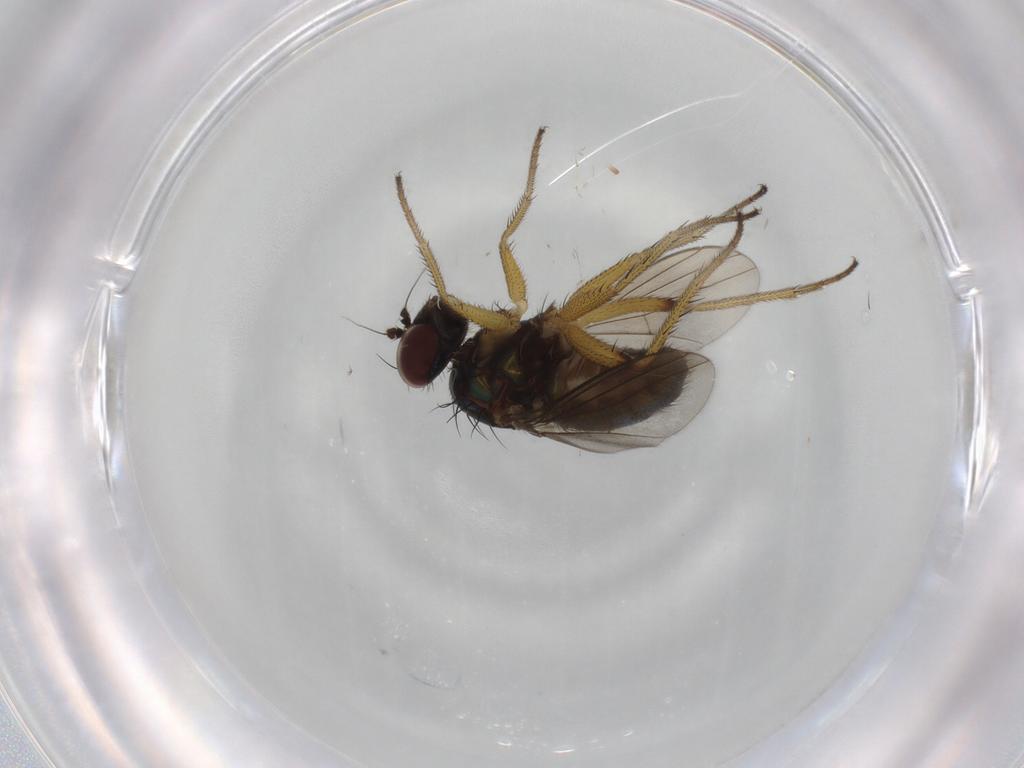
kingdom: Animalia
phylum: Arthropoda
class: Insecta
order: Diptera
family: Dolichopodidae
